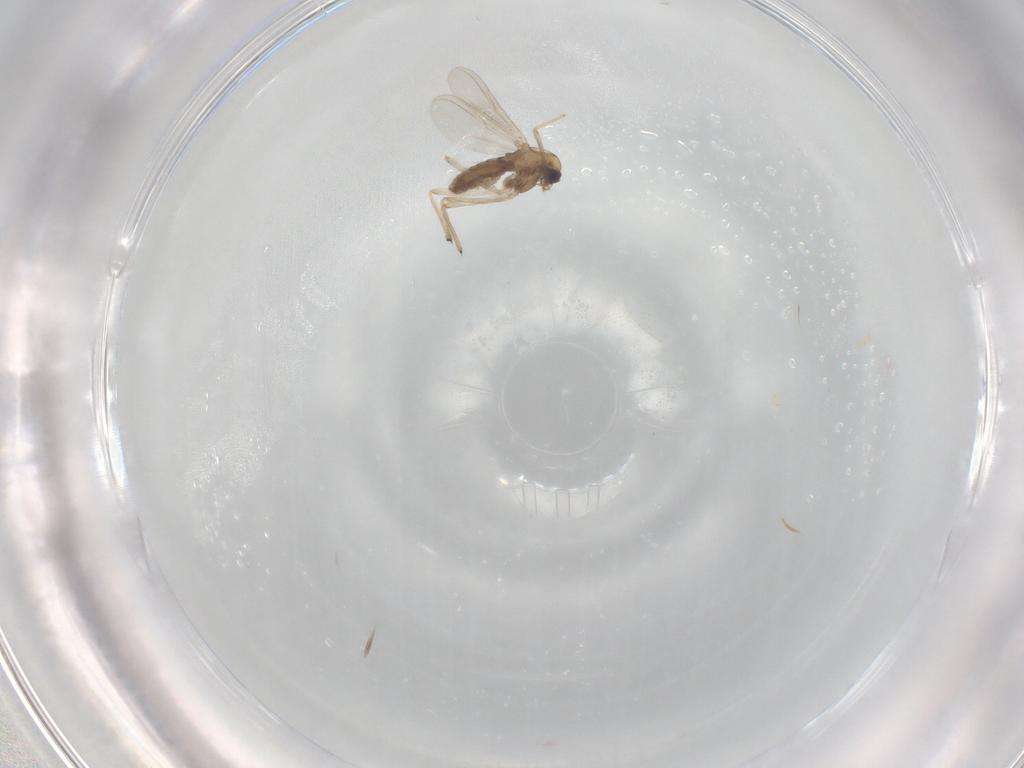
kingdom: Animalia
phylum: Arthropoda
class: Insecta
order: Diptera
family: Chironomidae
